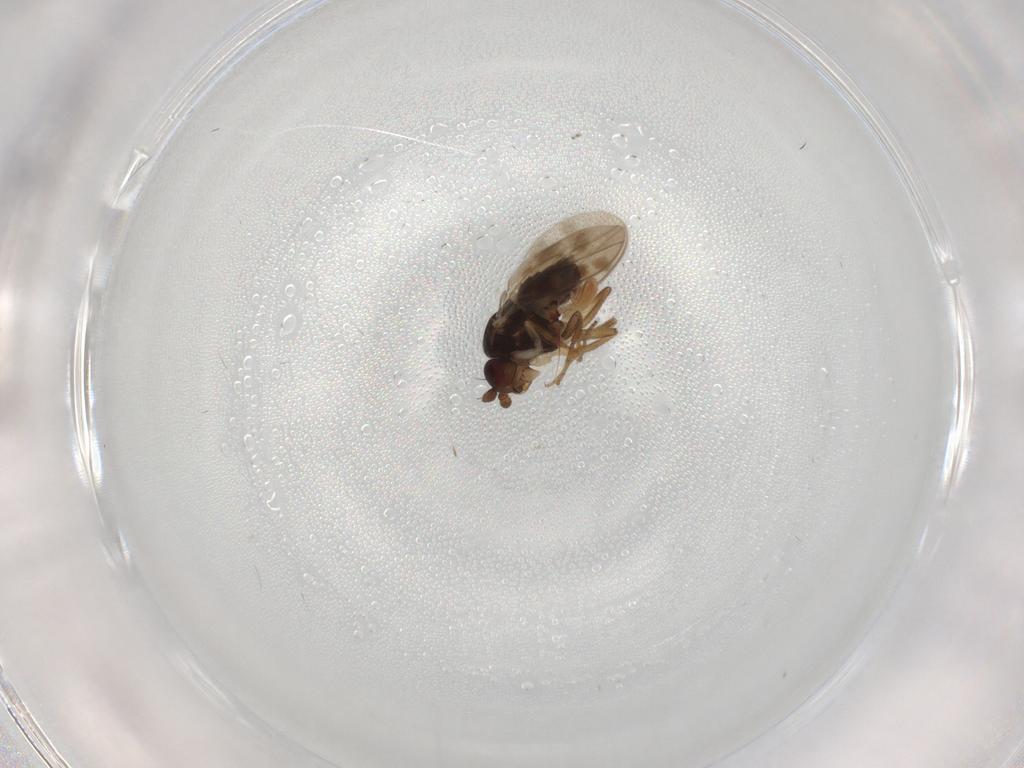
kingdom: Animalia
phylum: Arthropoda
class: Insecta
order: Diptera
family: Sphaeroceridae
